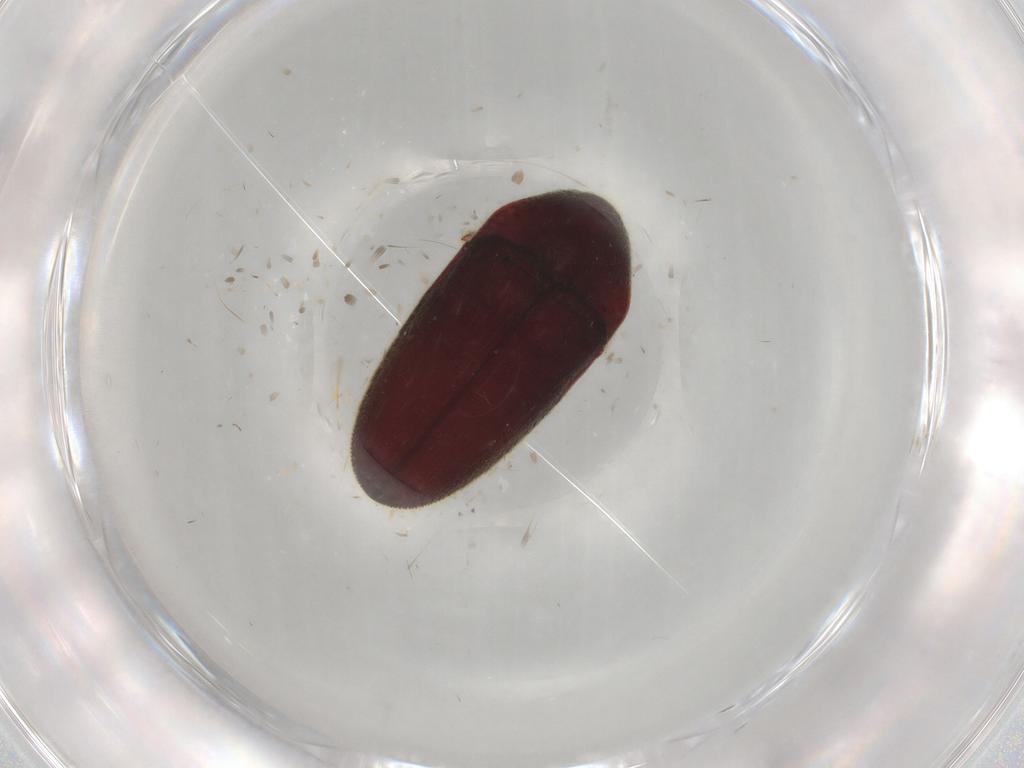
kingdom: Animalia
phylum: Arthropoda
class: Insecta
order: Coleoptera
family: Throscidae
